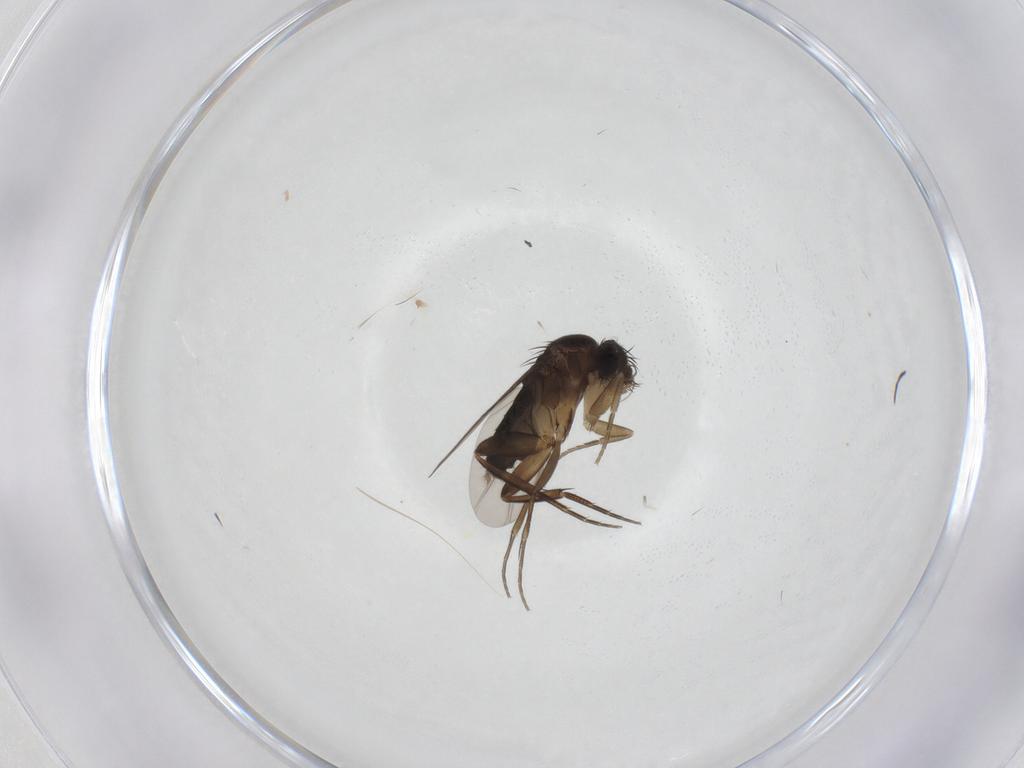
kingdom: Animalia
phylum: Arthropoda
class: Insecta
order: Diptera
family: Phoridae
